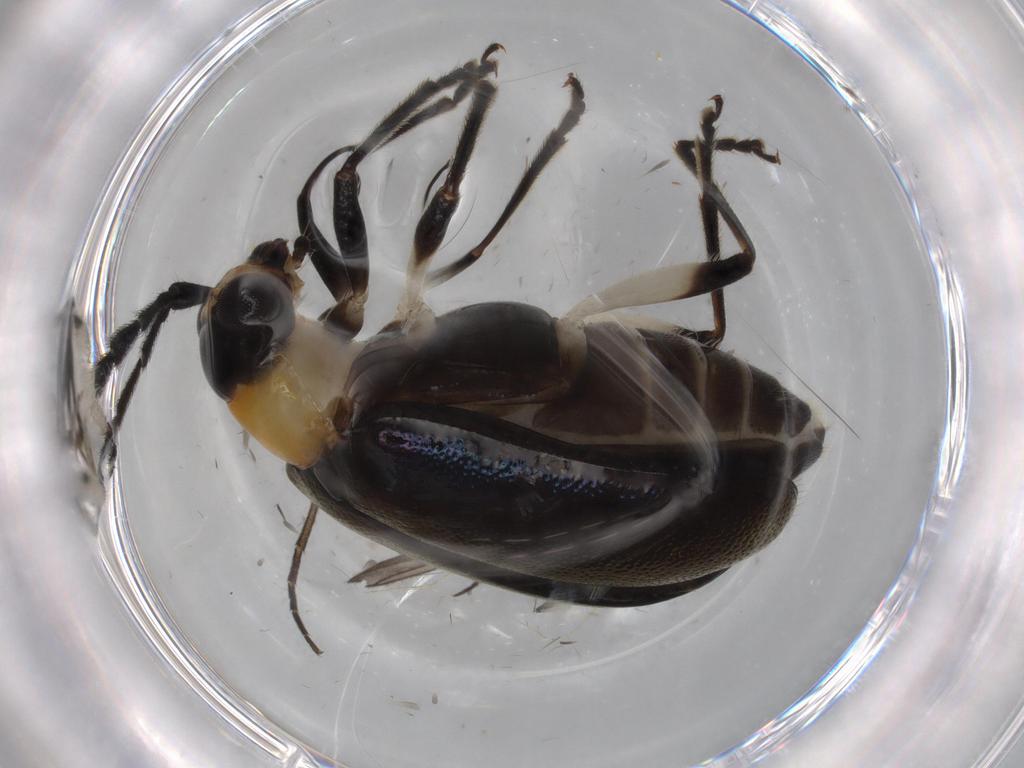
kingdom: Animalia
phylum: Arthropoda
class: Insecta
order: Coleoptera
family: Chrysomelidae
